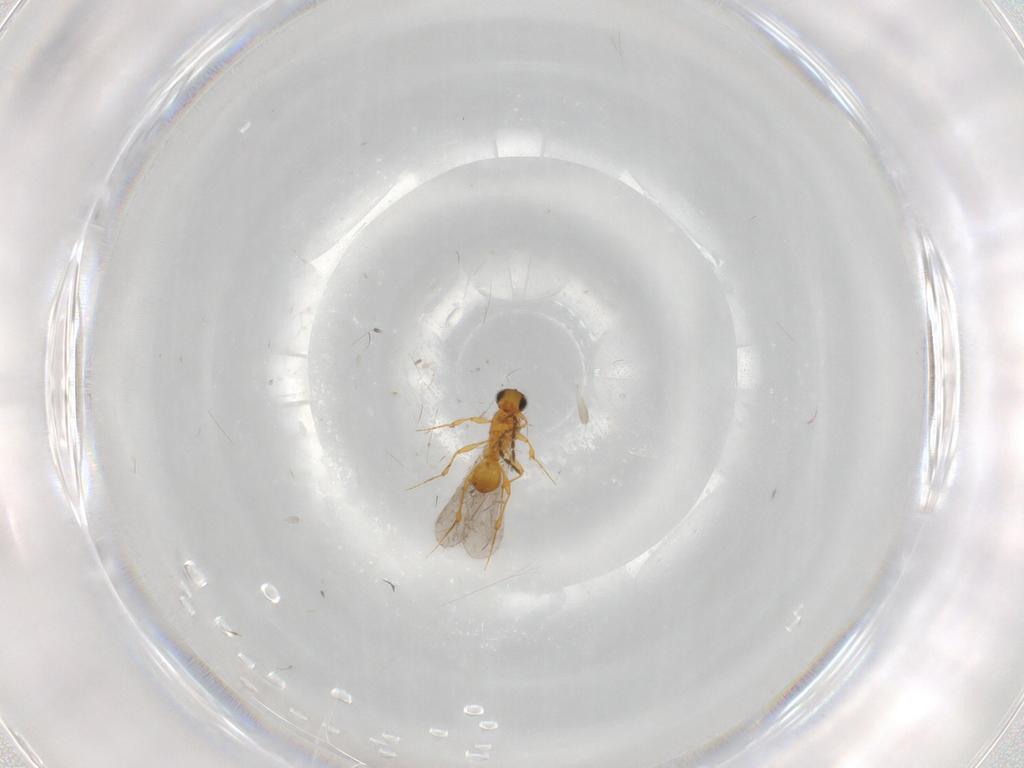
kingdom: Animalia
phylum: Arthropoda
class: Insecta
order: Hymenoptera
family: Platygastridae
